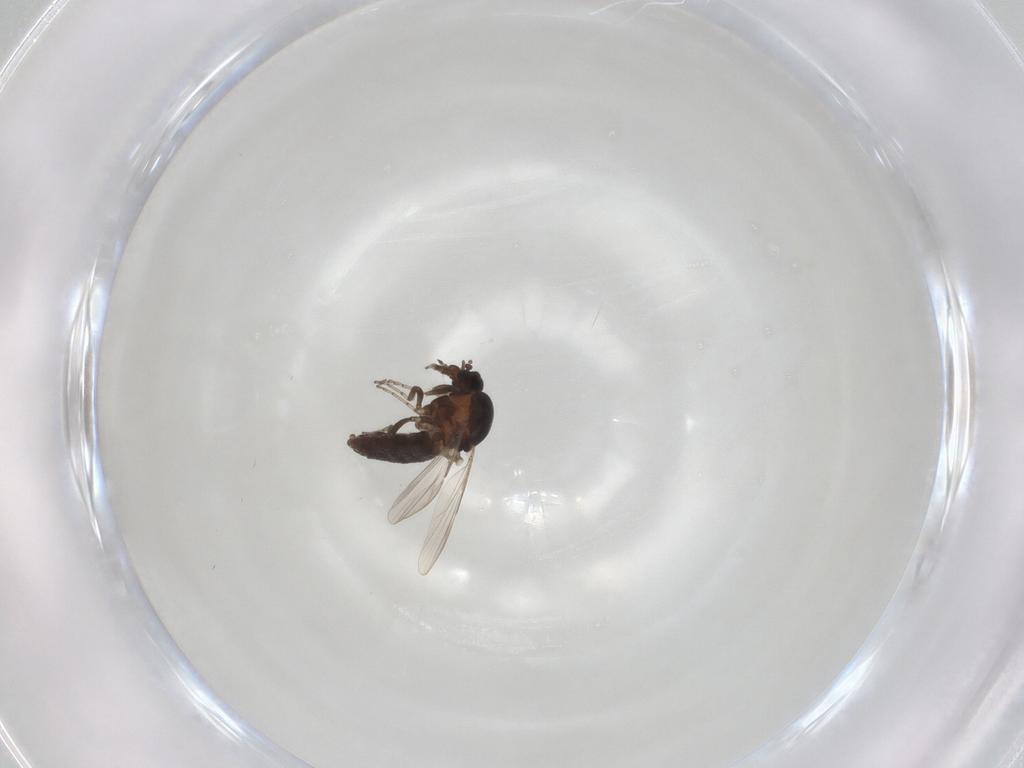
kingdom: Animalia
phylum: Arthropoda
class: Insecta
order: Diptera
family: Ceratopogonidae
